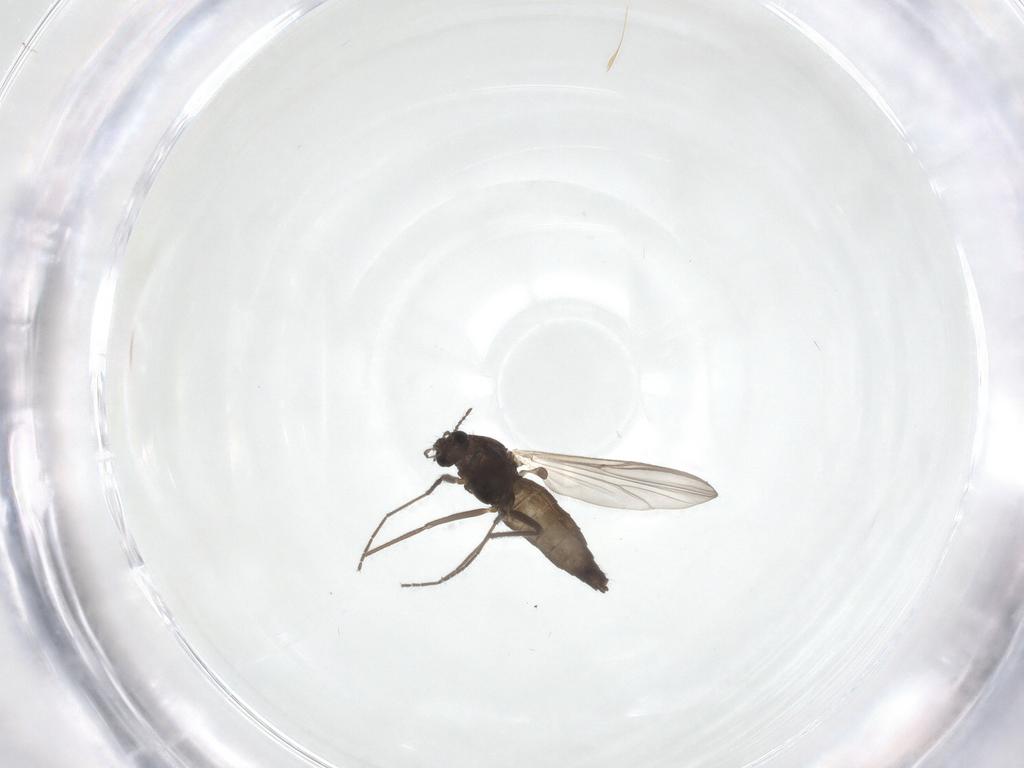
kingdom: Animalia
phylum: Arthropoda
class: Insecta
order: Diptera
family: Chironomidae
